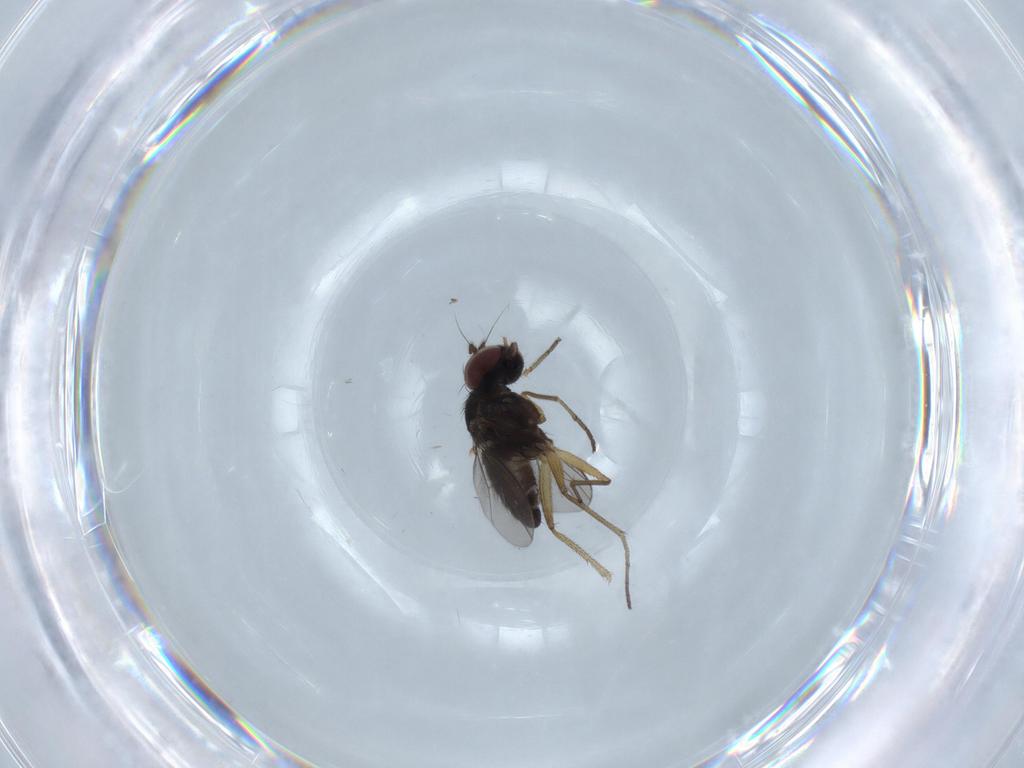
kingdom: Animalia
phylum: Arthropoda
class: Insecta
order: Diptera
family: Dolichopodidae
